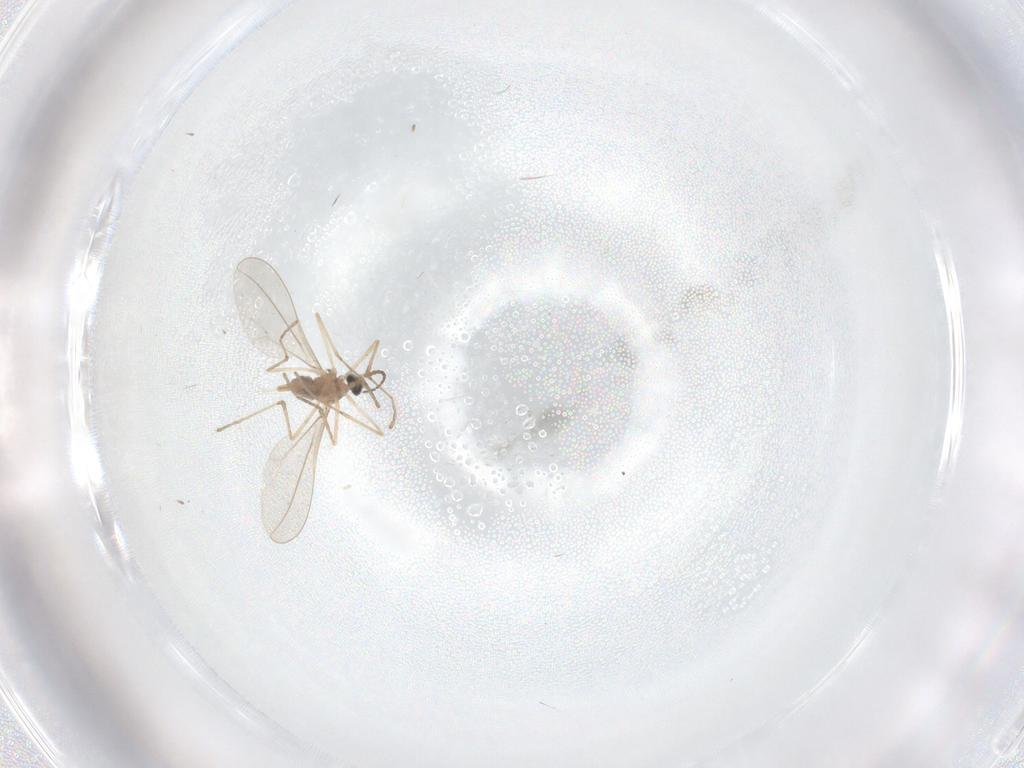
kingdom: Animalia
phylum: Arthropoda
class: Insecta
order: Diptera
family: Cecidomyiidae
